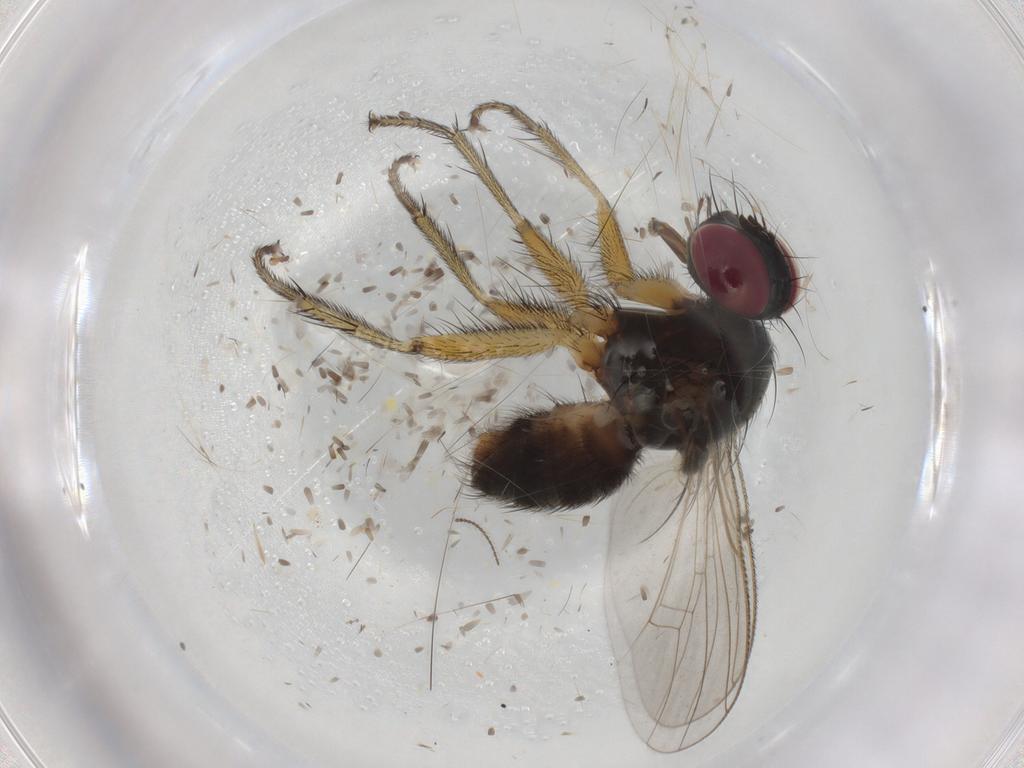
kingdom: Animalia
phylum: Arthropoda
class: Insecta
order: Diptera
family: Muscidae
